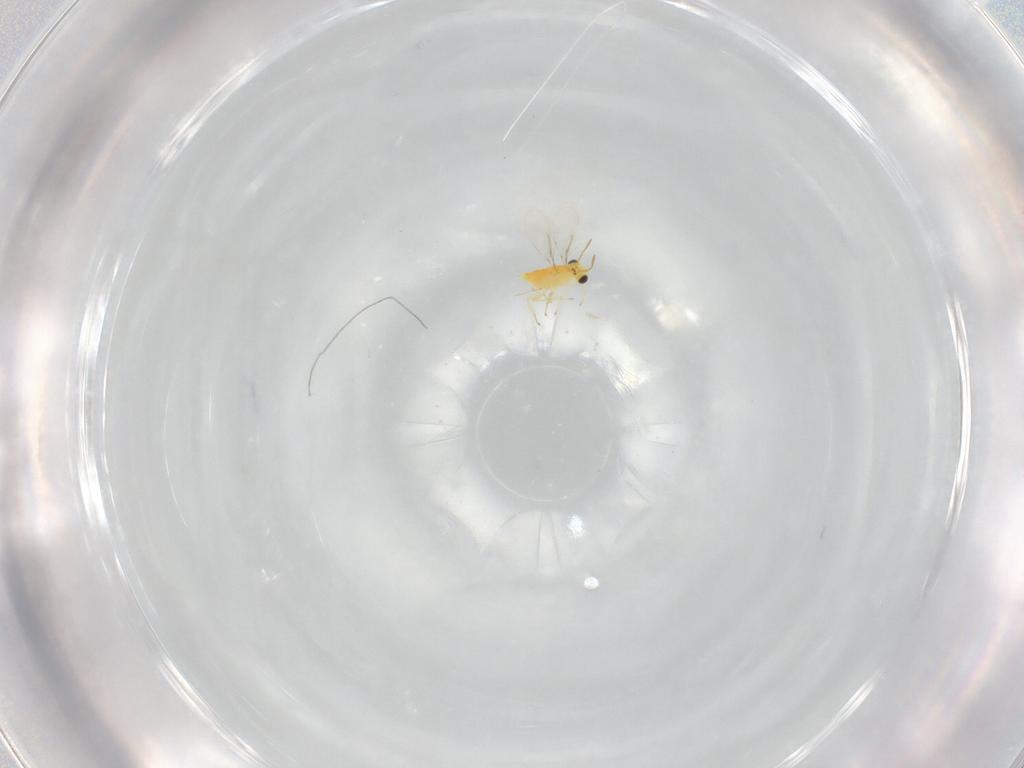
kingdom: Animalia
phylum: Arthropoda
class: Insecta
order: Hymenoptera
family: Aphelinidae
